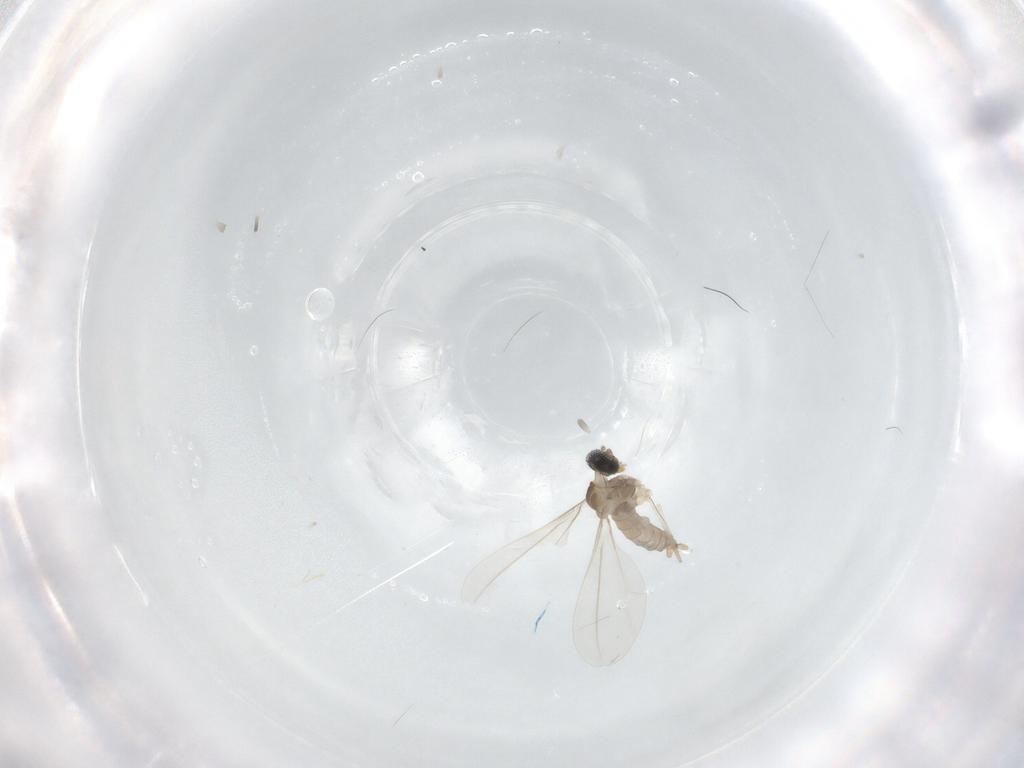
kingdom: Animalia
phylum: Arthropoda
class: Insecta
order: Diptera
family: Cecidomyiidae
